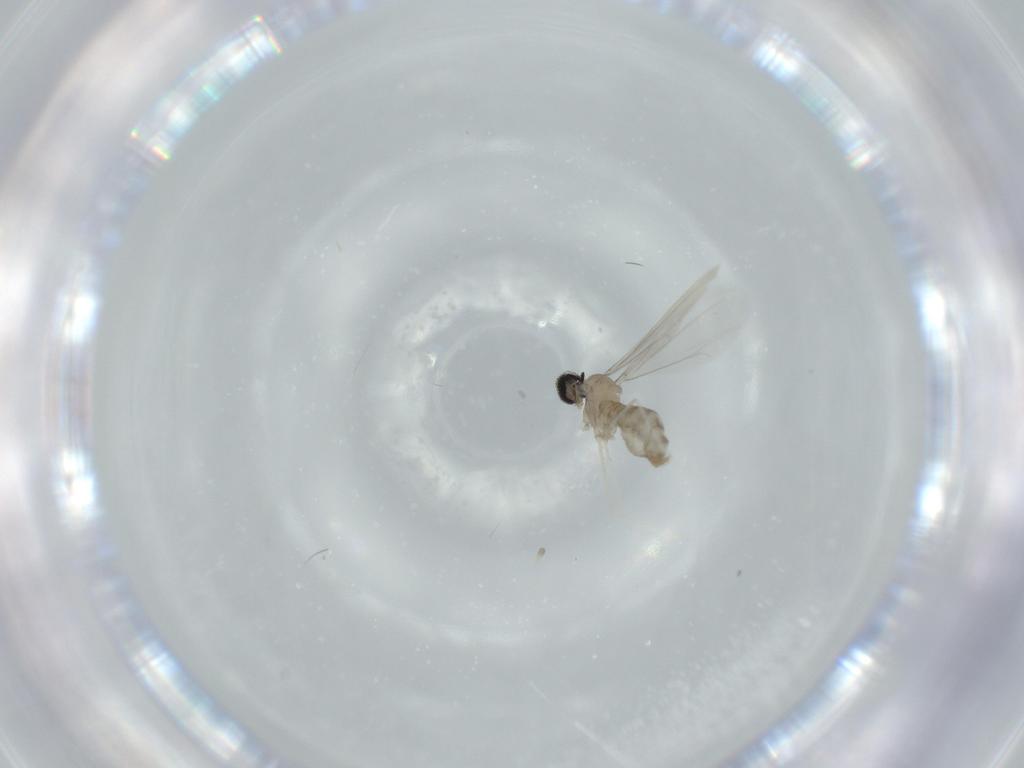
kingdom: Animalia
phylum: Arthropoda
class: Insecta
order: Diptera
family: Cecidomyiidae
